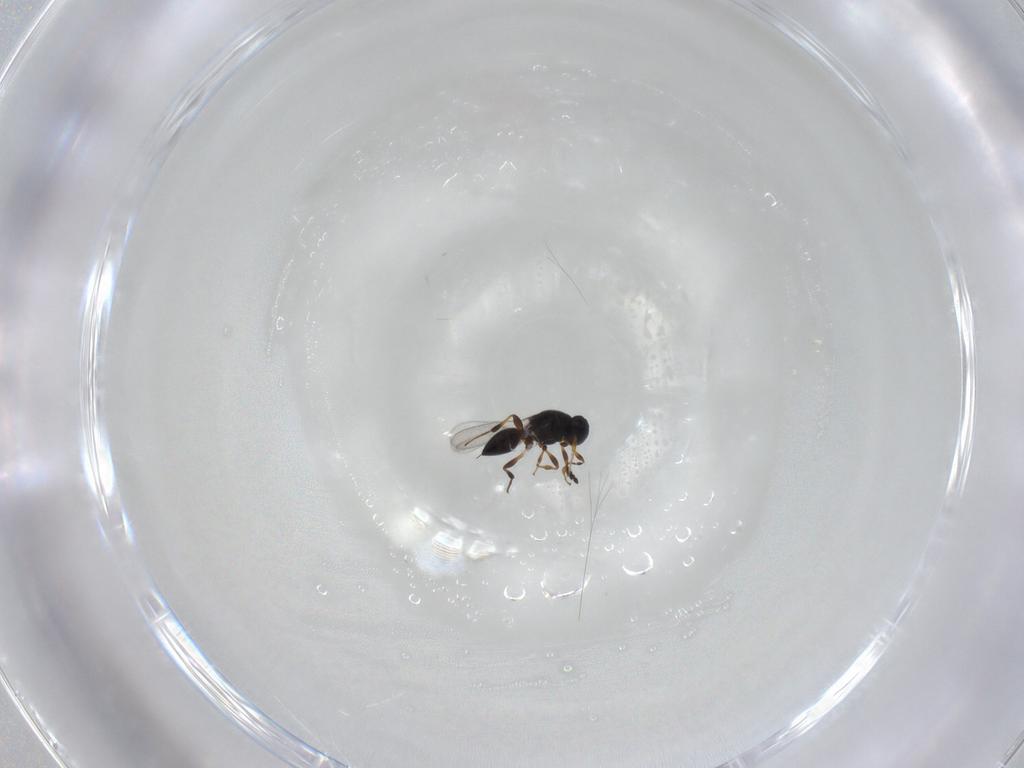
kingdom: Animalia
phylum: Arthropoda
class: Insecta
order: Hymenoptera
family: Platygastridae
